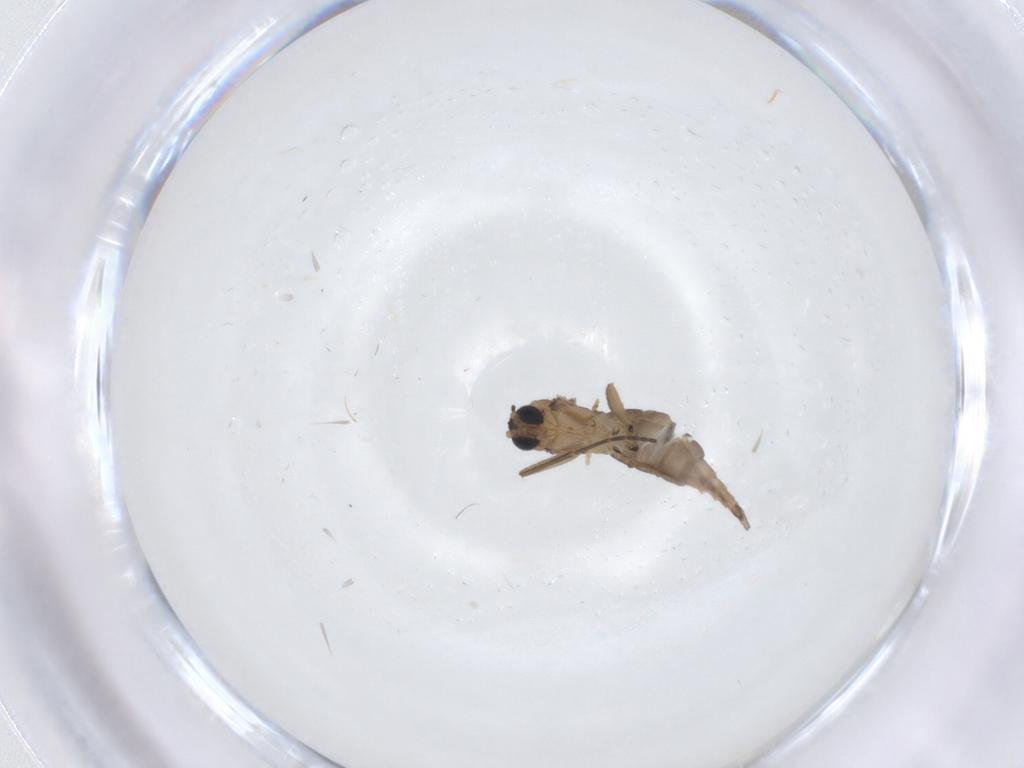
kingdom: Animalia
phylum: Arthropoda
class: Insecta
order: Diptera
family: Sciaridae
